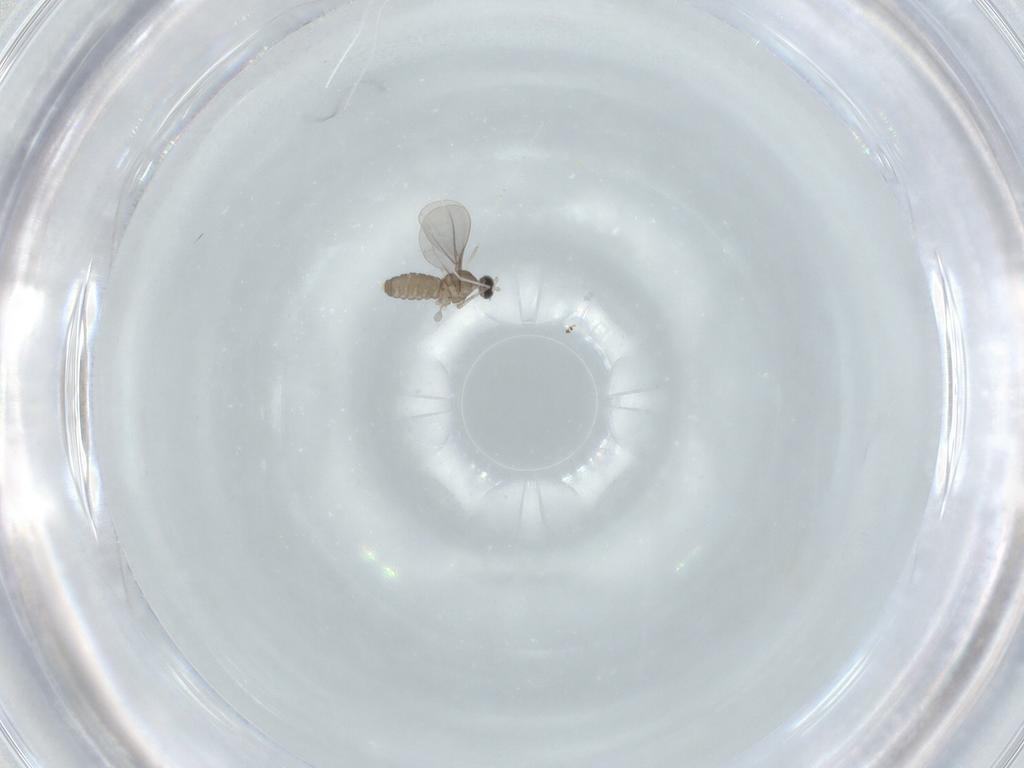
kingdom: Animalia
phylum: Arthropoda
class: Insecta
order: Diptera
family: Cecidomyiidae
